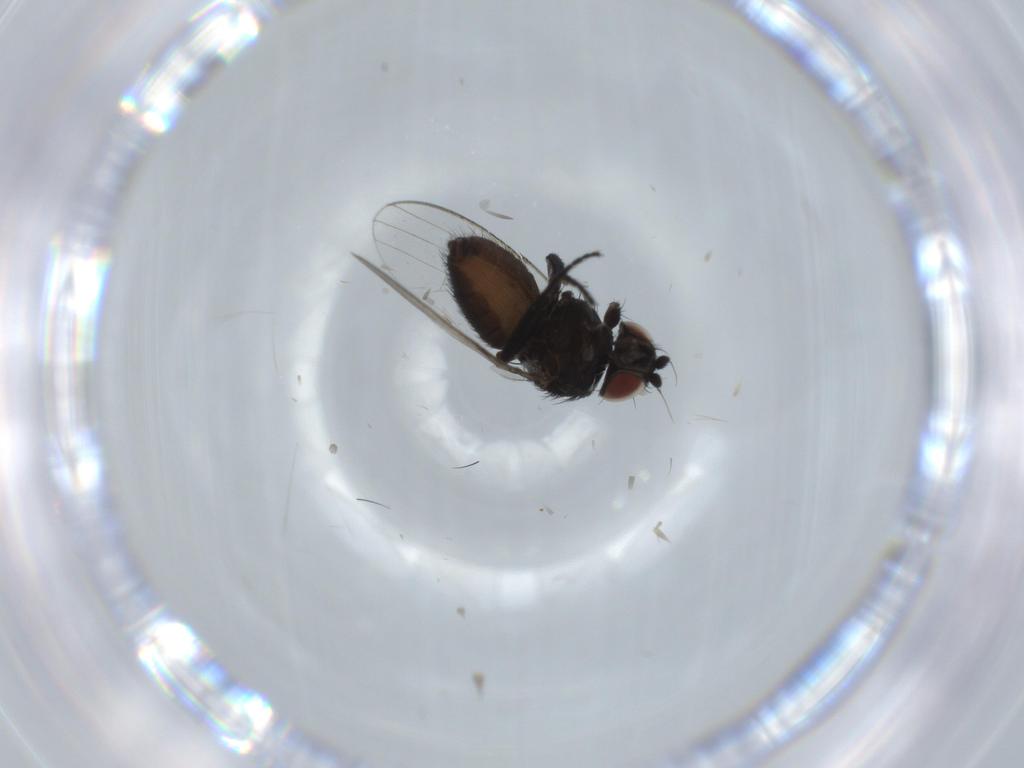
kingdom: Animalia
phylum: Arthropoda
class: Insecta
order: Diptera
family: Milichiidae
